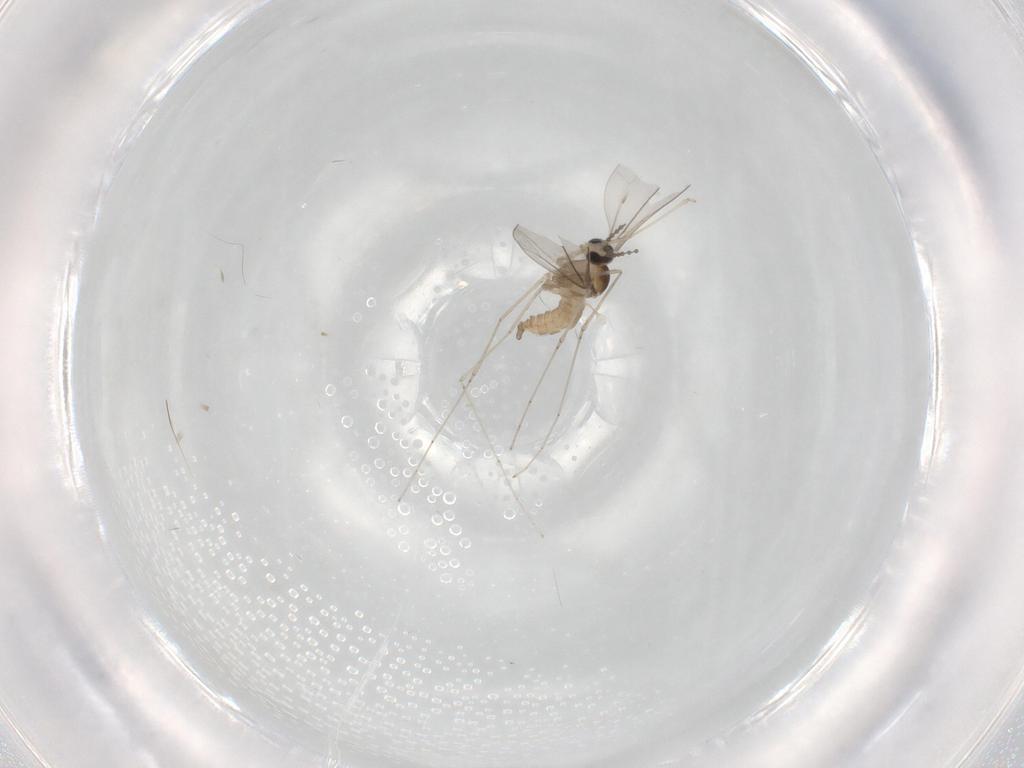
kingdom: Animalia
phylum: Arthropoda
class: Insecta
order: Diptera
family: Cecidomyiidae
